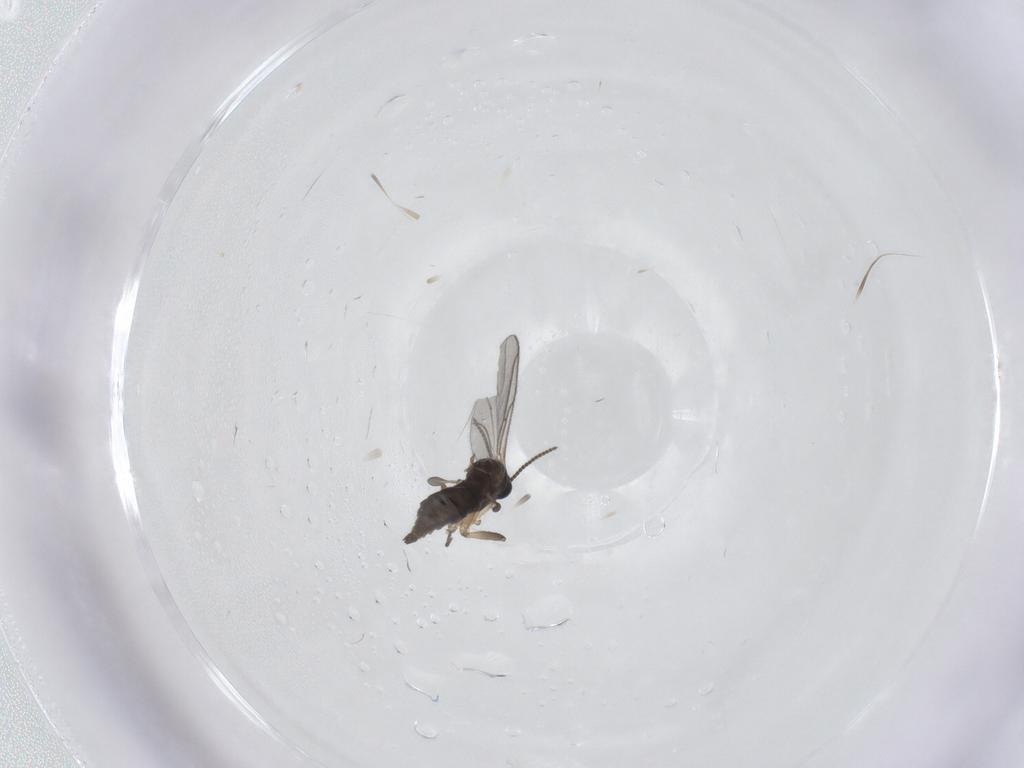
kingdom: Animalia
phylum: Arthropoda
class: Insecta
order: Diptera
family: Sciaridae
